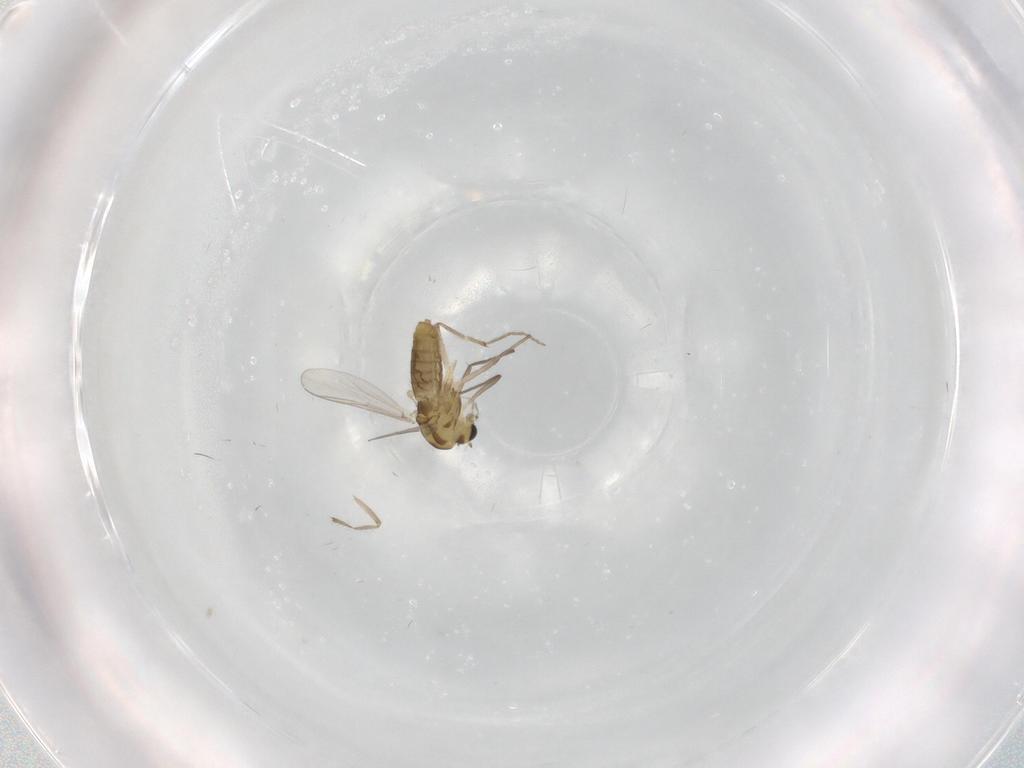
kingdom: Animalia
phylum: Arthropoda
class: Insecta
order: Diptera
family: Chironomidae
